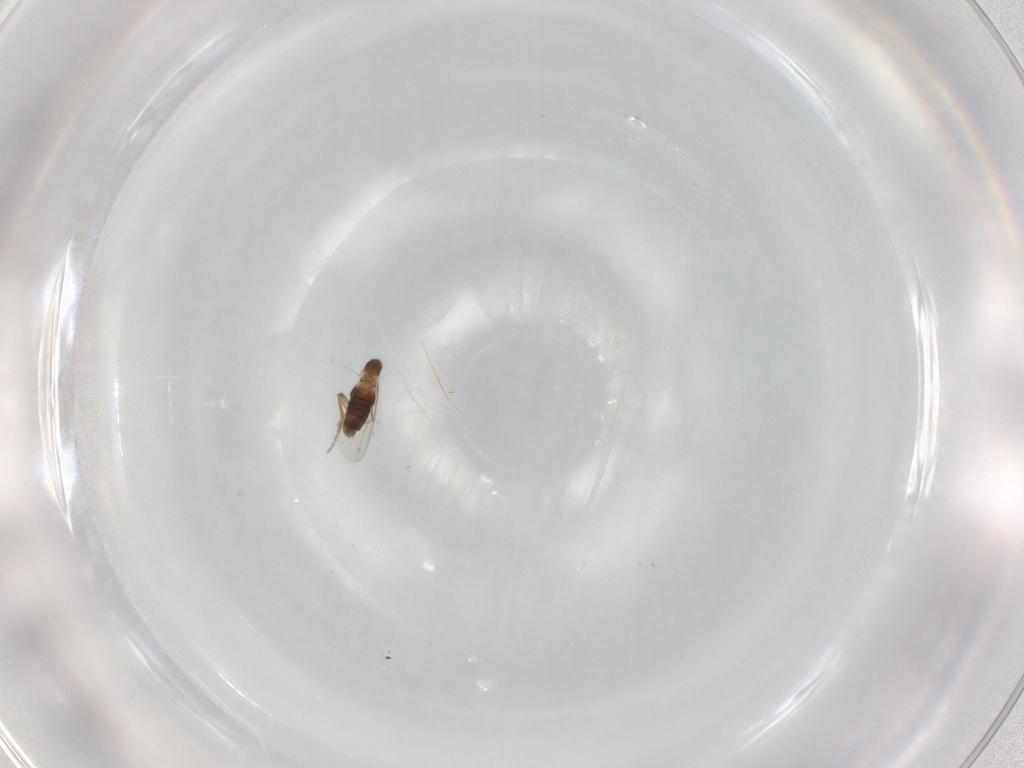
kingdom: Animalia
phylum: Arthropoda
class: Insecta
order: Diptera
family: Phoridae
